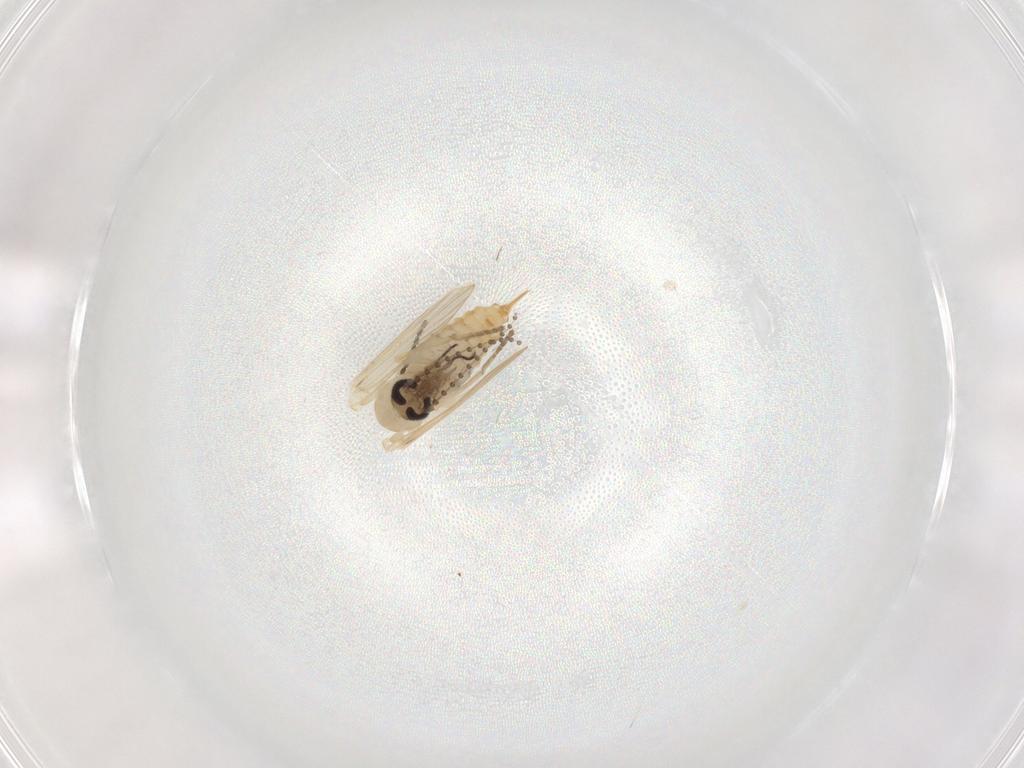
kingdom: Animalia
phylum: Arthropoda
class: Insecta
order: Diptera
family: Psychodidae
